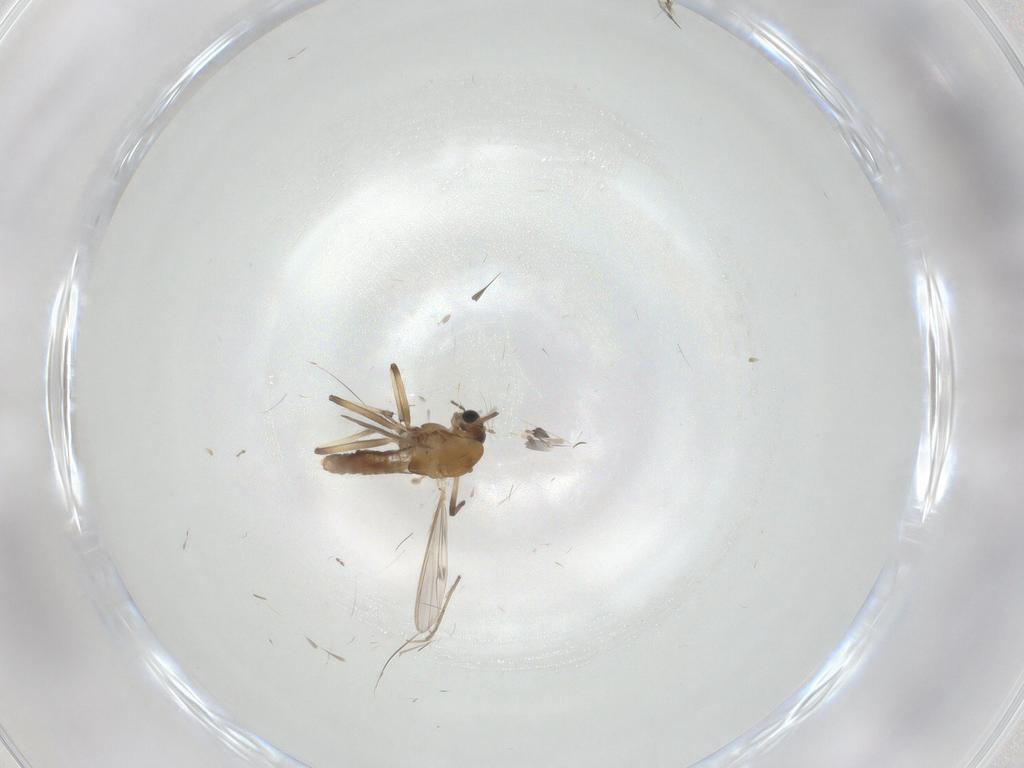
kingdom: Animalia
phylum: Arthropoda
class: Insecta
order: Diptera
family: Chironomidae
